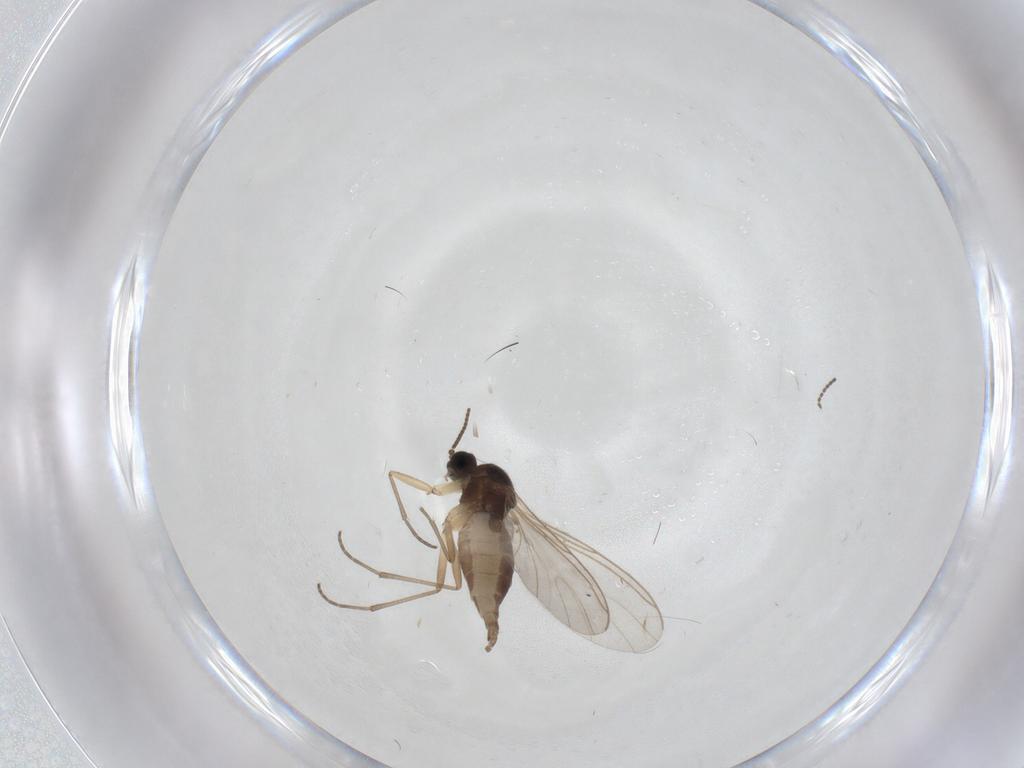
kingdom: Animalia
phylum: Arthropoda
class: Insecta
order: Diptera
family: Sciaridae
